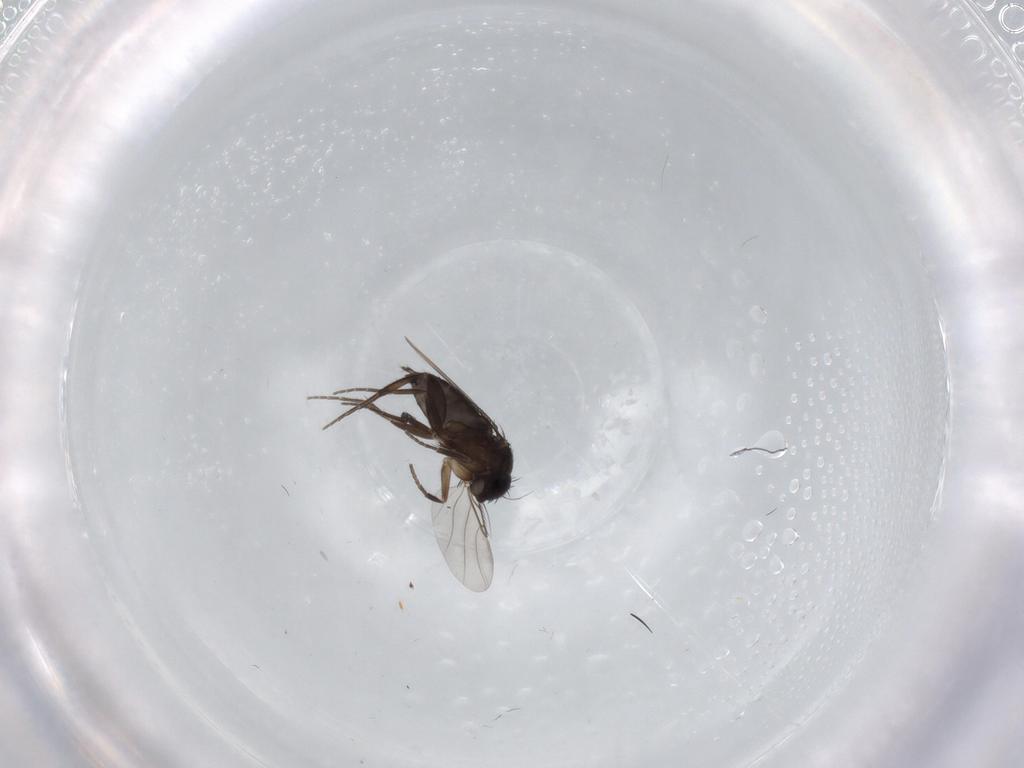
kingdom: Animalia
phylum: Arthropoda
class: Insecta
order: Diptera
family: Phoridae
